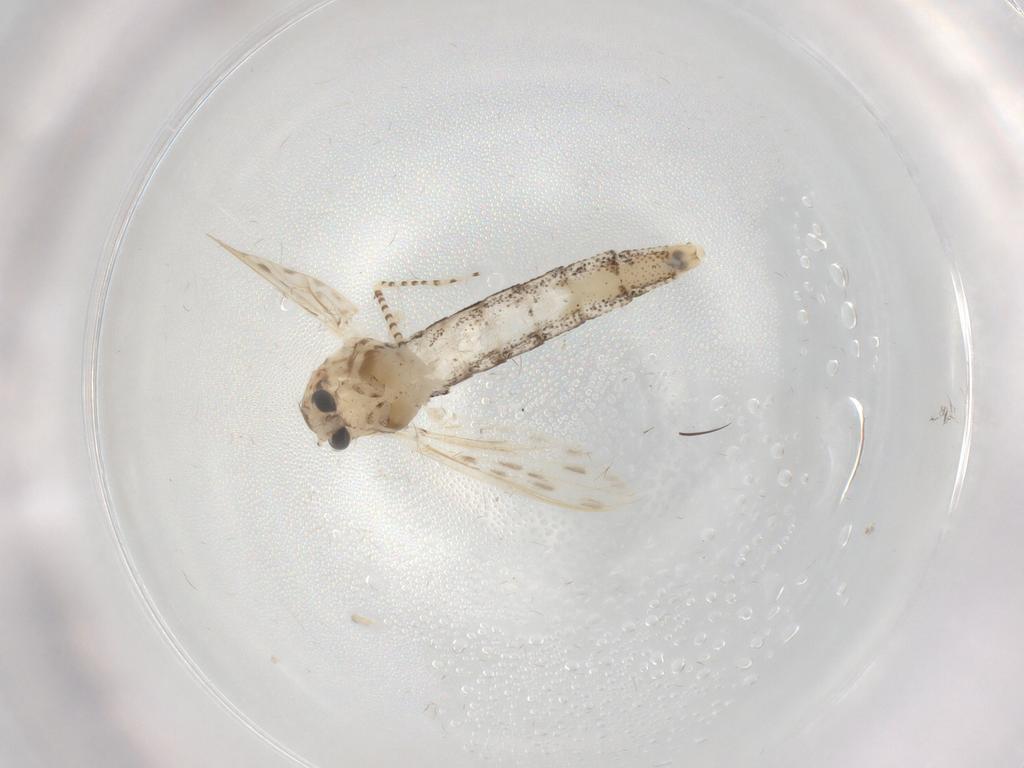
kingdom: Animalia
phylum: Arthropoda
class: Insecta
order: Diptera
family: Chaoboridae
